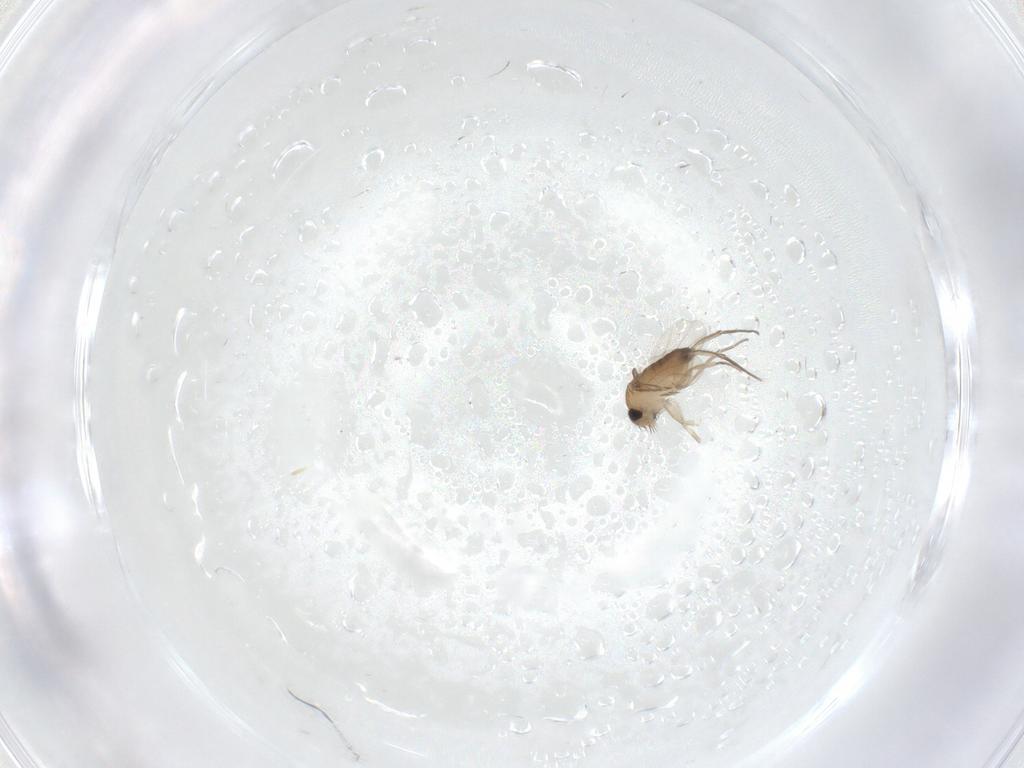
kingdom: Animalia
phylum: Arthropoda
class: Insecta
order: Diptera
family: Phoridae
